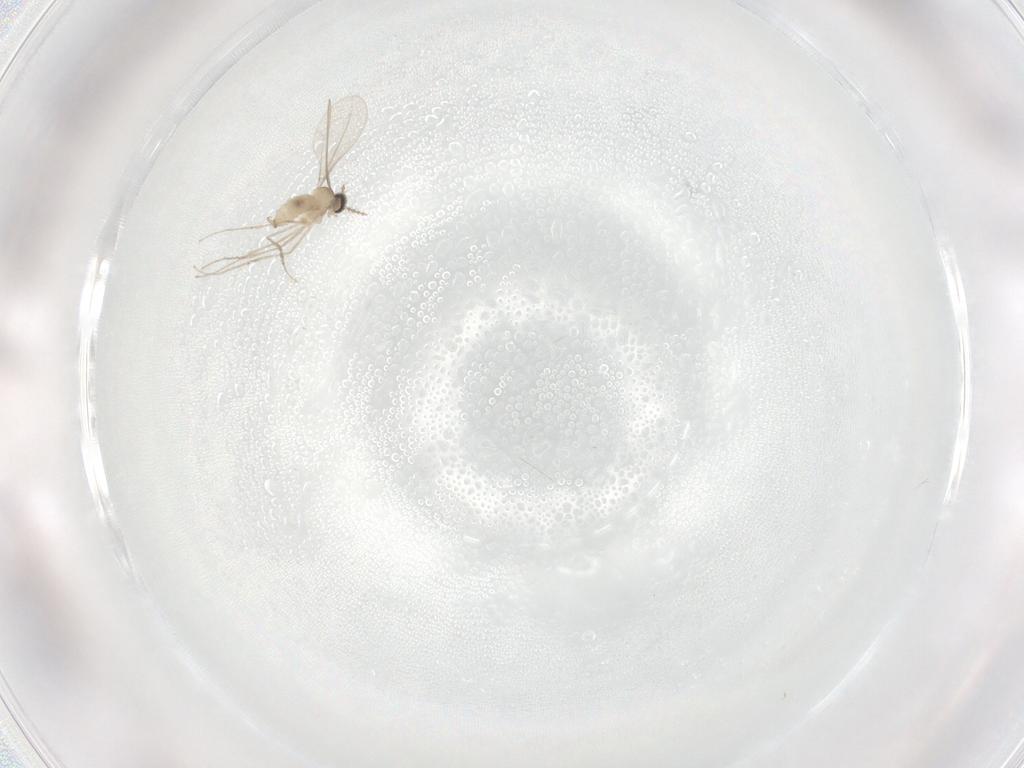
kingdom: Animalia
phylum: Arthropoda
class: Insecta
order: Diptera
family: Cecidomyiidae
